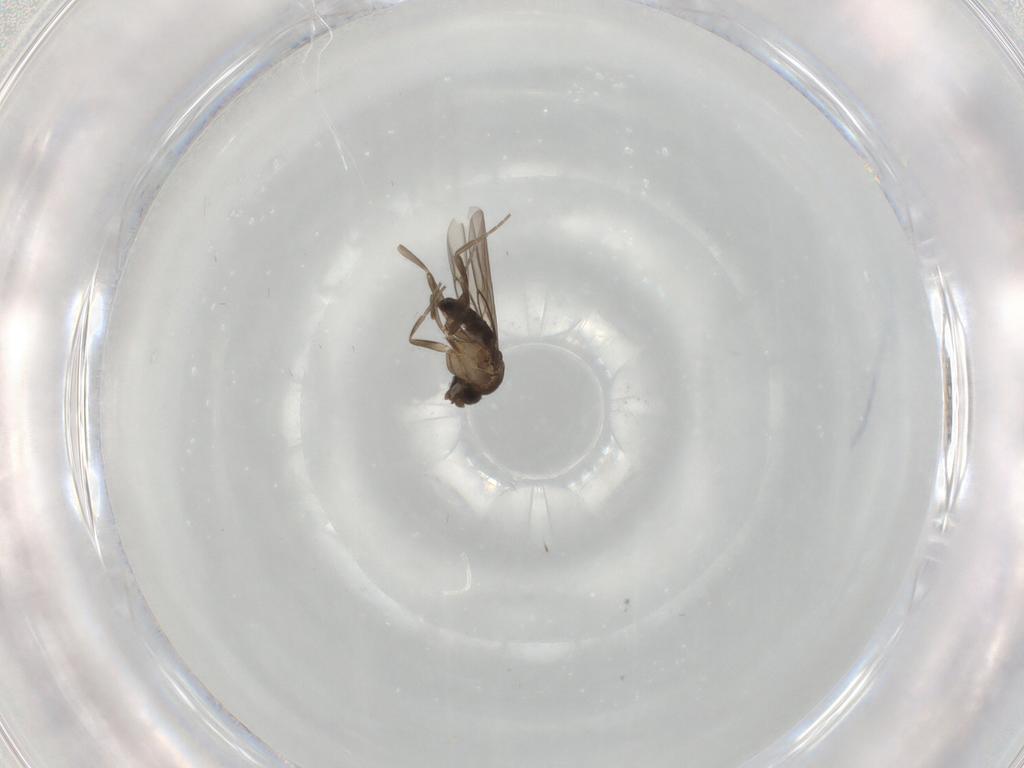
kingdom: Animalia
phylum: Arthropoda
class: Insecta
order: Diptera
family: Phoridae
